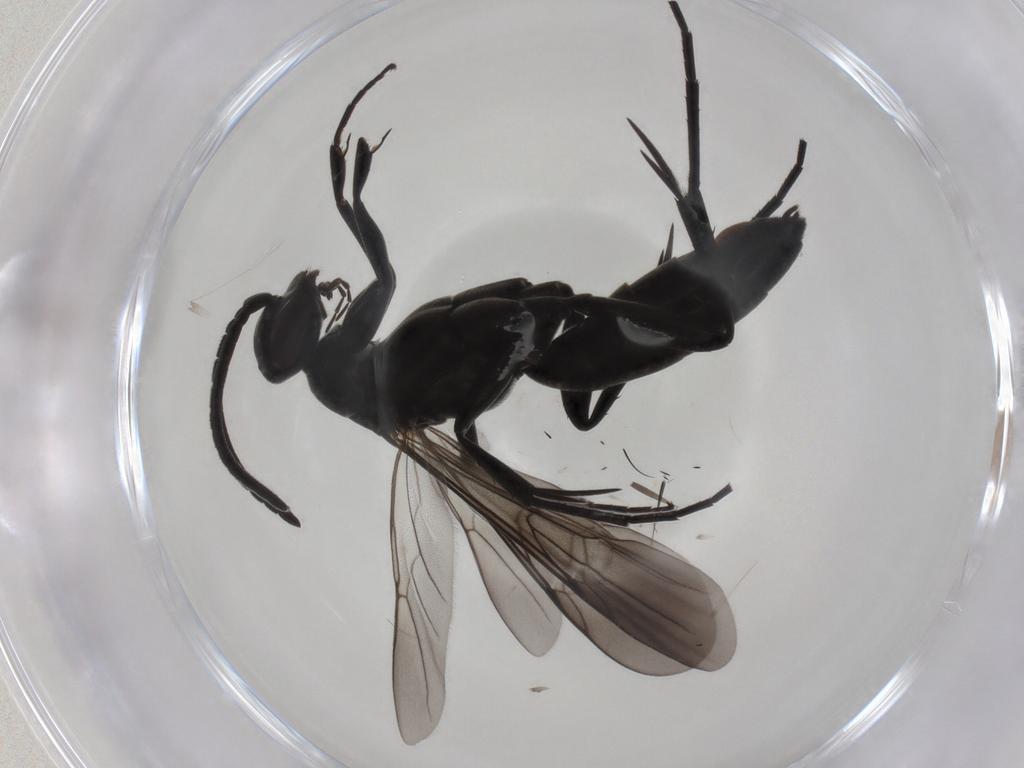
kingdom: Animalia
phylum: Arthropoda
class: Insecta
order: Hymenoptera
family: Pompilidae
